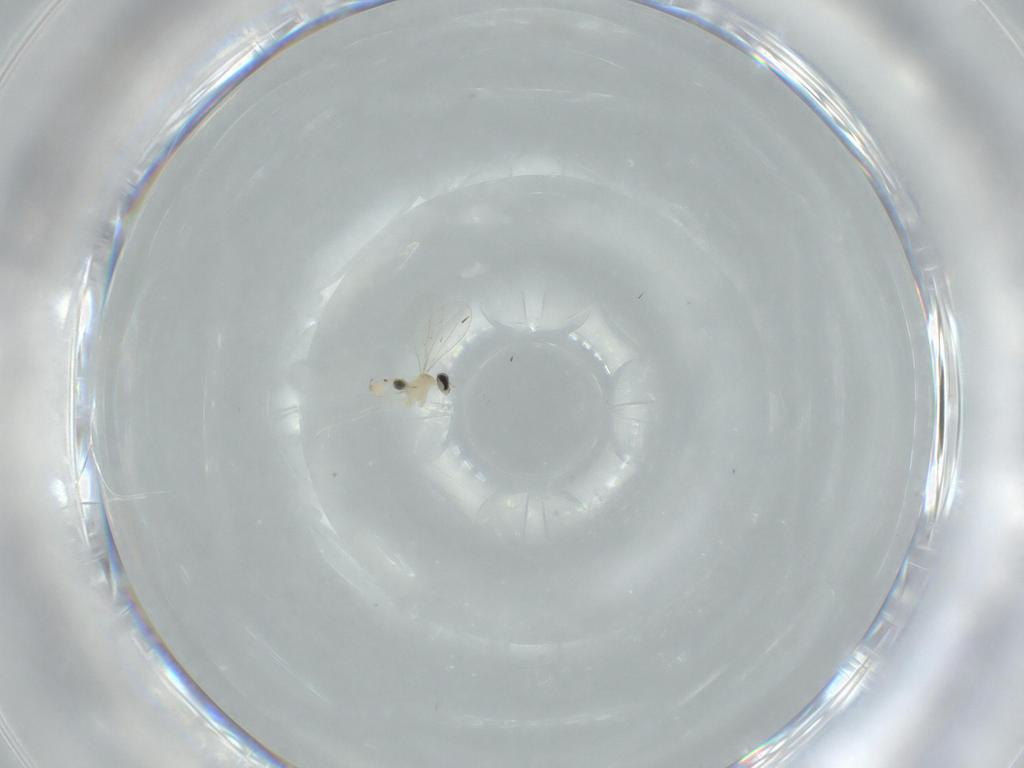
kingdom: Animalia
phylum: Arthropoda
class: Insecta
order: Diptera
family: Cecidomyiidae
